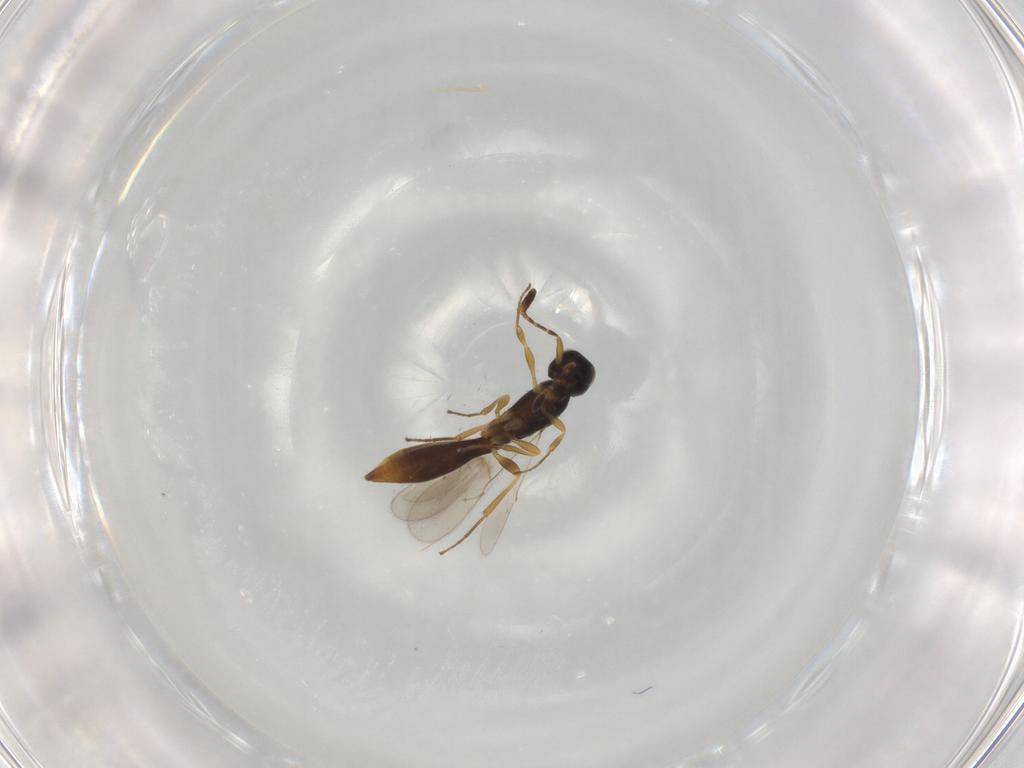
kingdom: Animalia
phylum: Arthropoda
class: Insecta
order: Hymenoptera
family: Scelionidae
